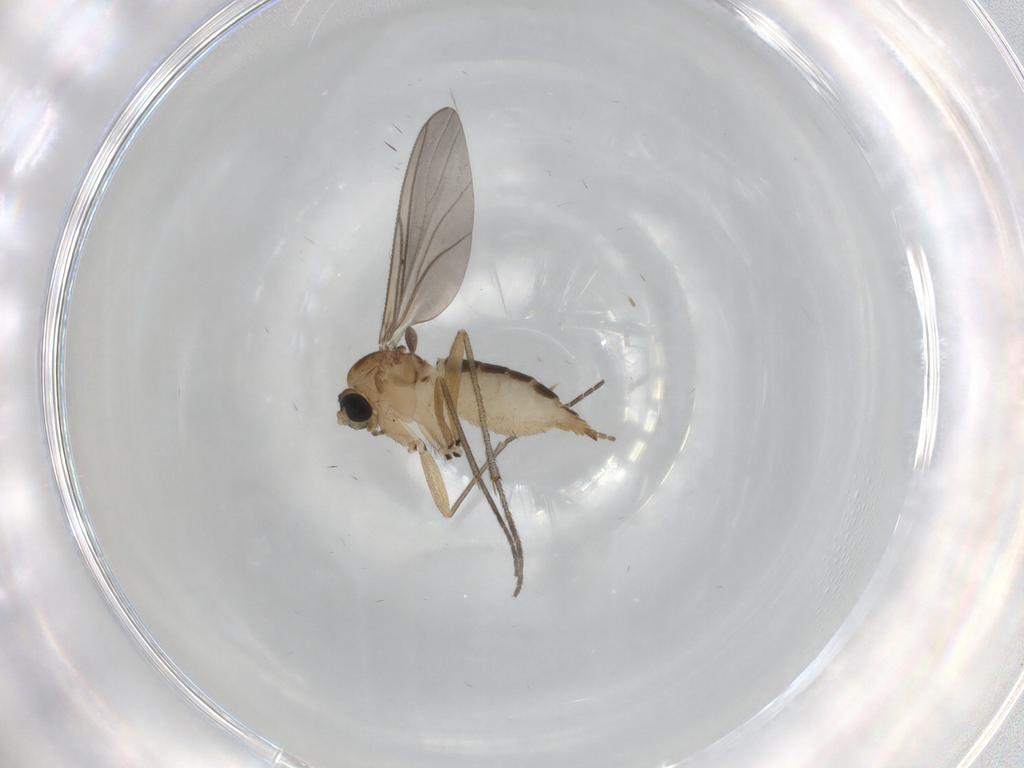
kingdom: Animalia
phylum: Arthropoda
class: Insecta
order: Diptera
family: Sciaridae
